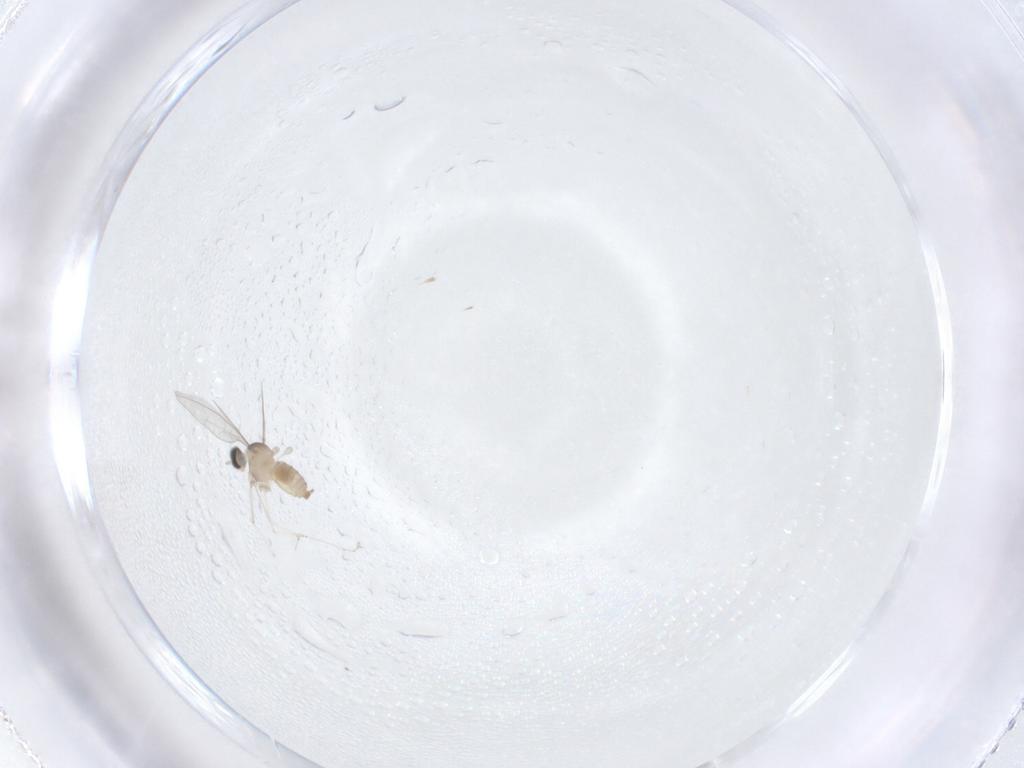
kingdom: Animalia
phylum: Arthropoda
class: Insecta
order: Diptera
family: Cecidomyiidae
